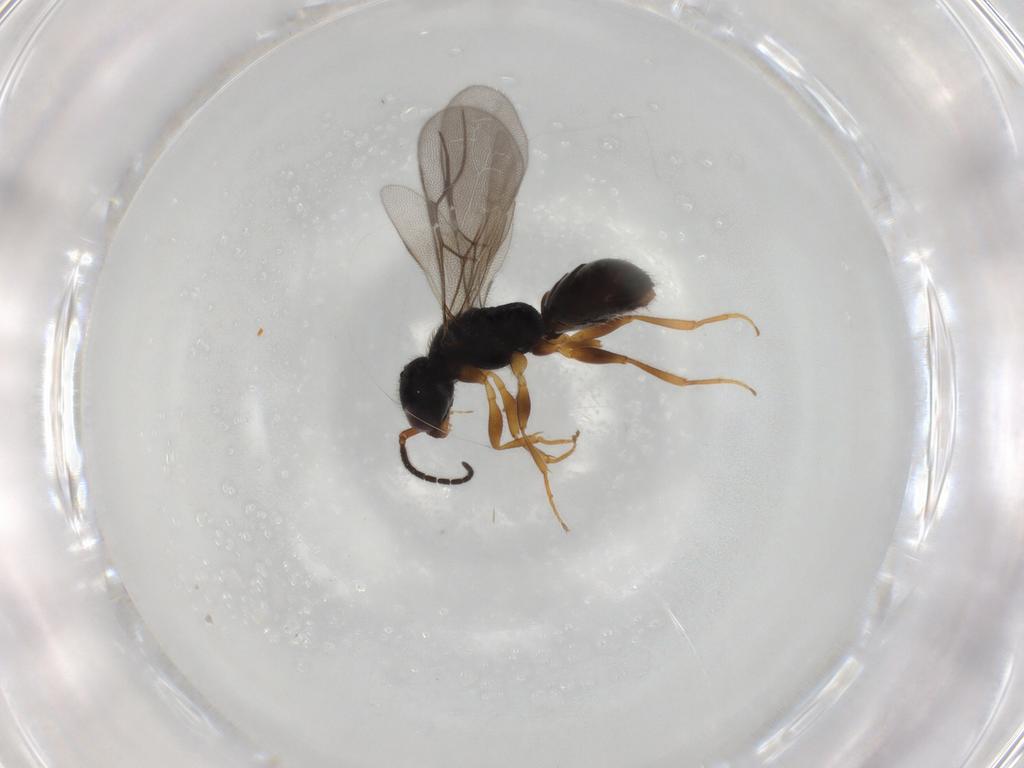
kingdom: Animalia
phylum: Arthropoda
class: Insecta
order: Hymenoptera
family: Bethylidae
